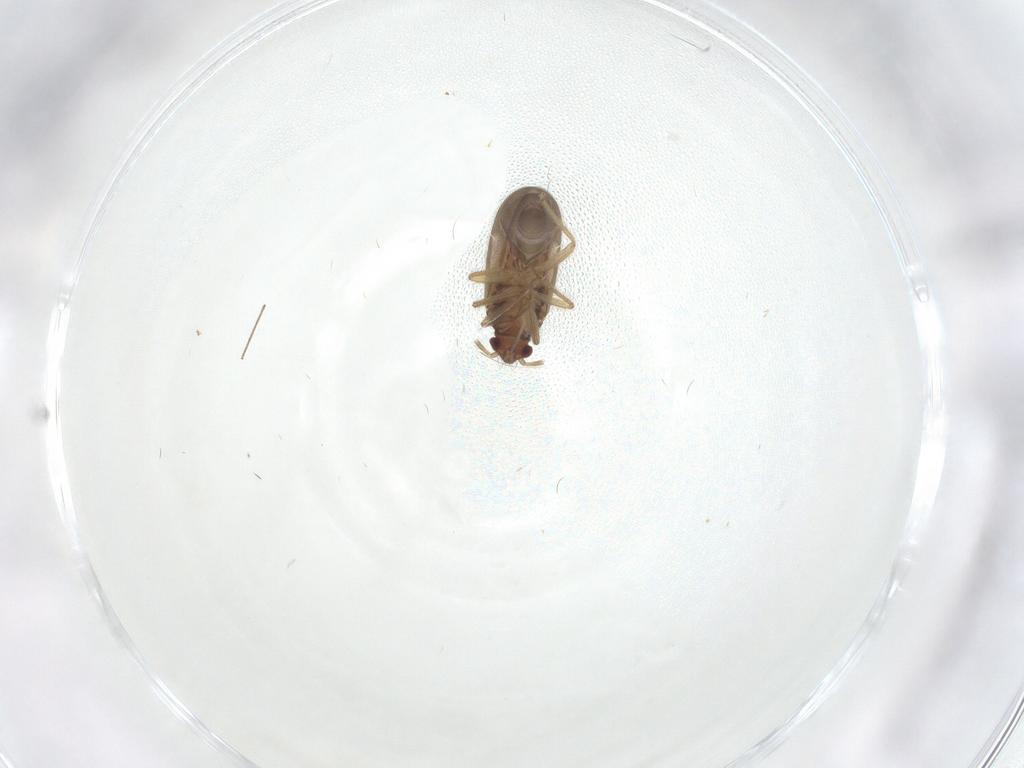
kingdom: Animalia
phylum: Arthropoda
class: Insecta
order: Hemiptera
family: Ceratocombidae
